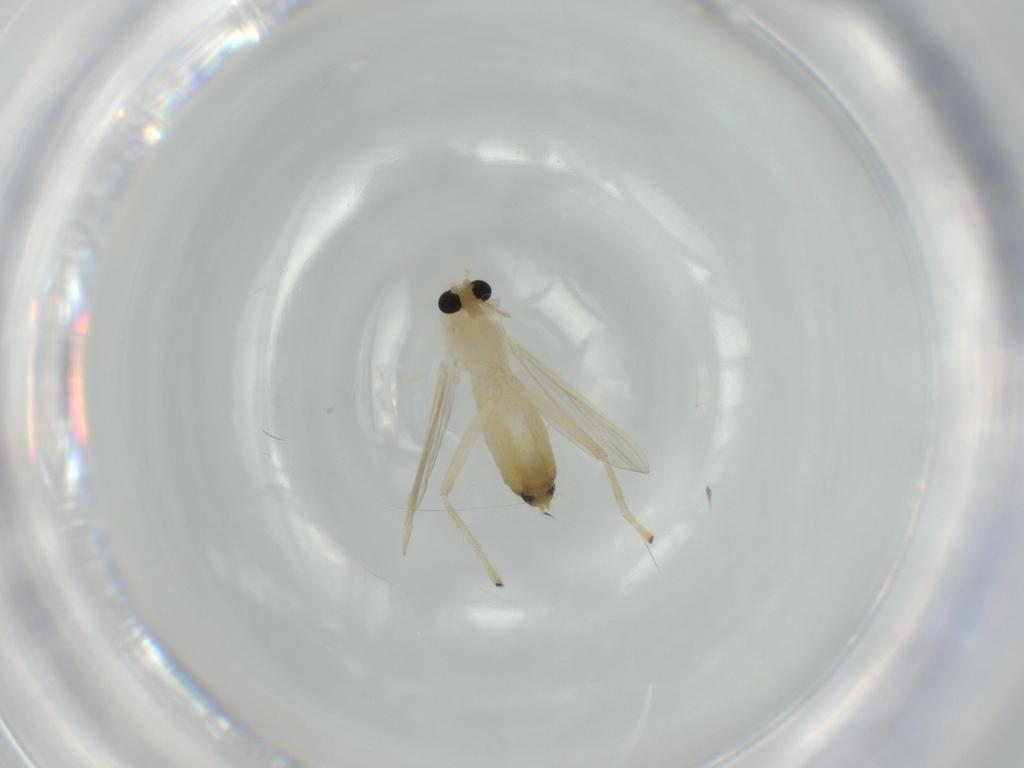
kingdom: Animalia
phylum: Arthropoda
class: Insecta
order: Diptera
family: Chironomidae
